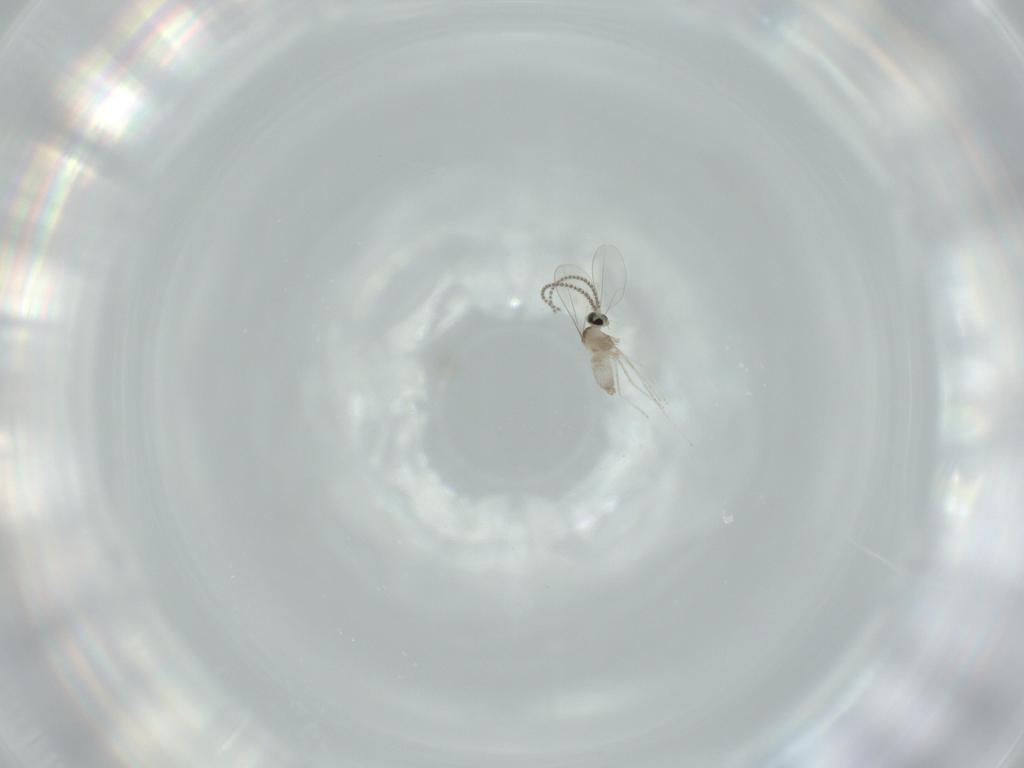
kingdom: Animalia
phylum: Arthropoda
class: Insecta
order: Diptera
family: Cecidomyiidae
